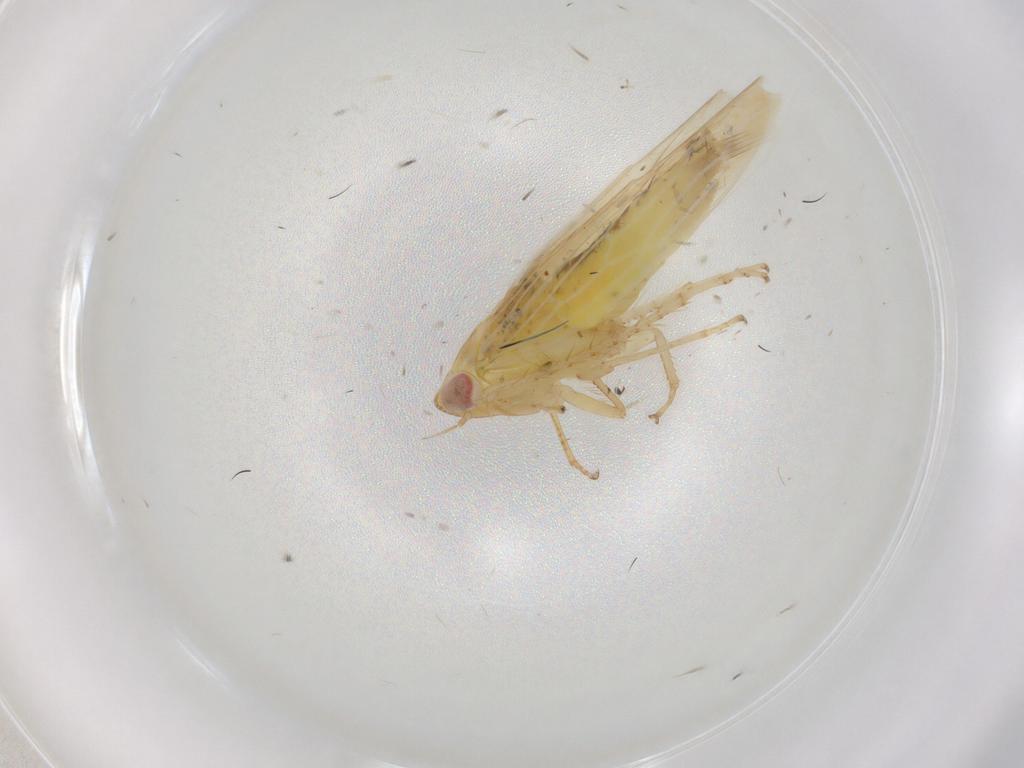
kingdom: Animalia
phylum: Arthropoda
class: Insecta
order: Hemiptera
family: Cicadellidae
